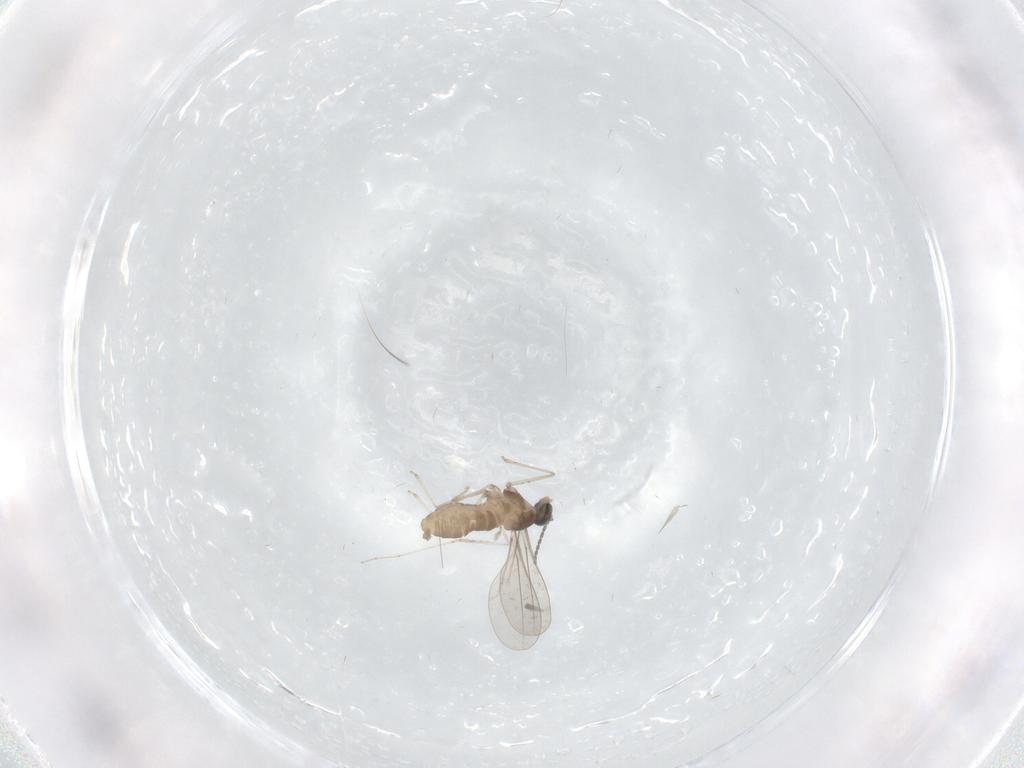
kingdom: Animalia
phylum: Arthropoda
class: Insecta
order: Diptera
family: Cecidomyiidae
